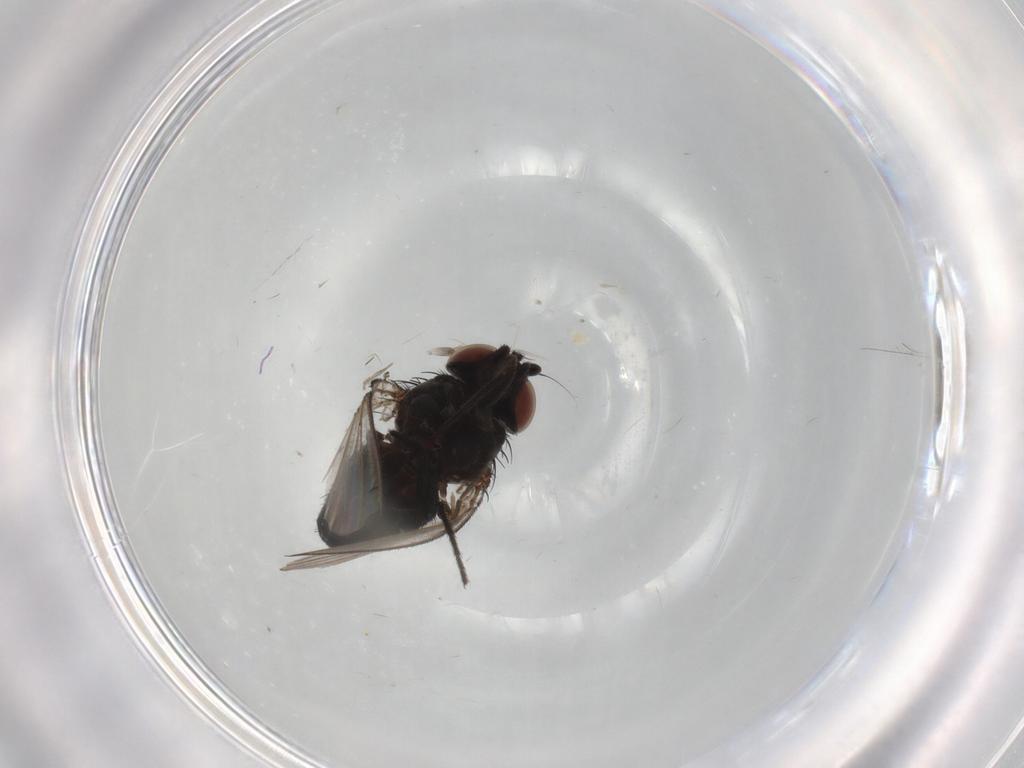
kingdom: Animalia
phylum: Arthropoda
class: Insecta
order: Diptera
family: Milichiidae
